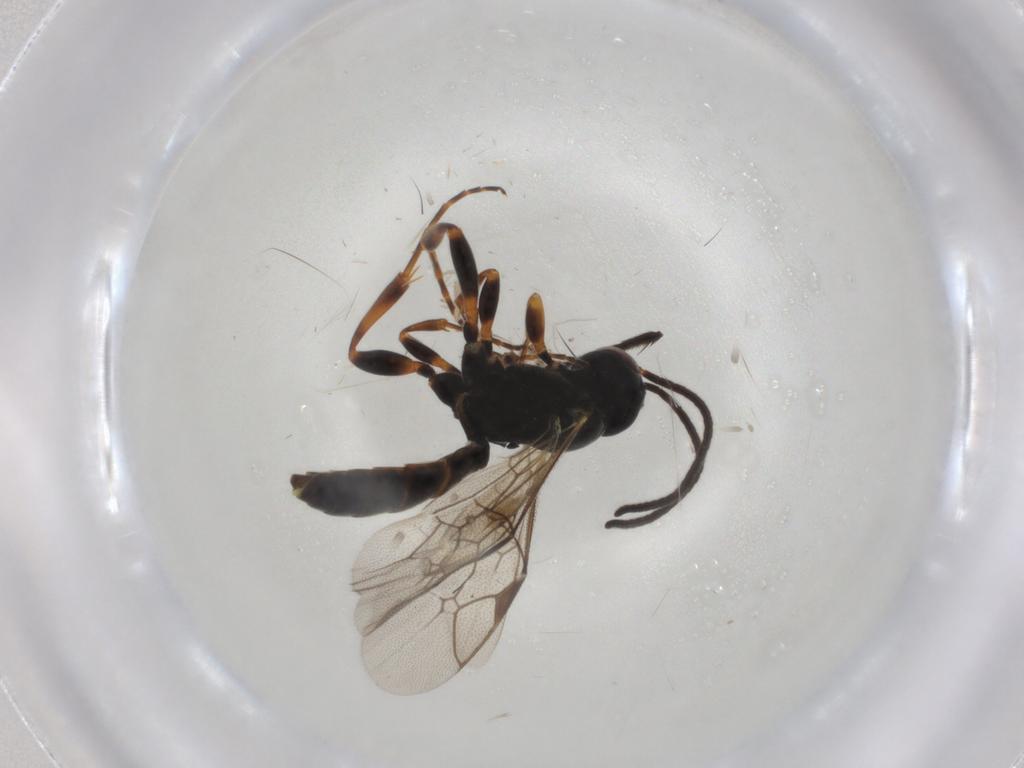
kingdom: Animalia
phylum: Arthropoda
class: Insecta
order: Hymenoptera
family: Ichneumonidae
